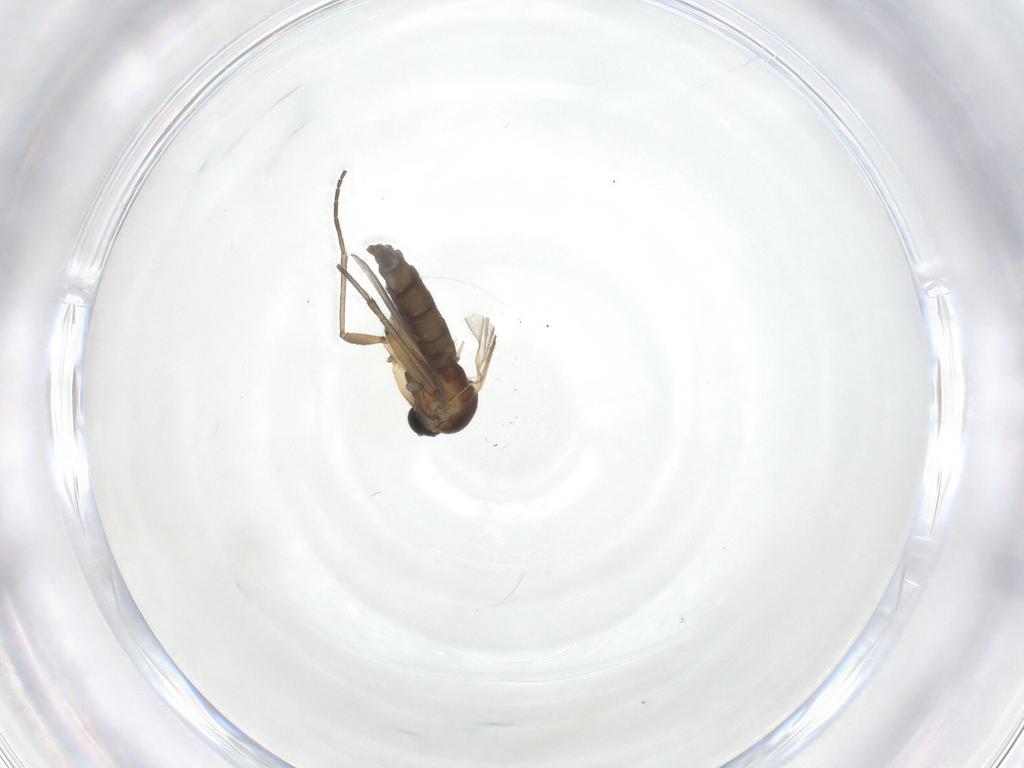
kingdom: Animalia
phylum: Arthropoda
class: Insecta
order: Diptera
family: Sciaridae
